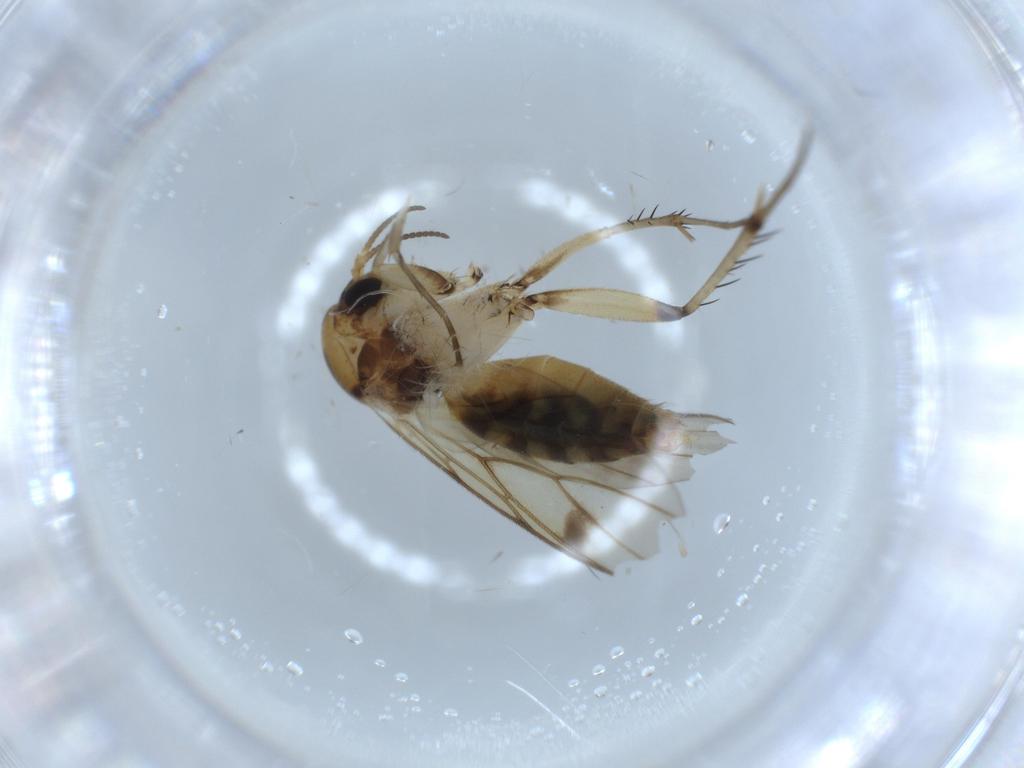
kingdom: Animalia
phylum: Arthropoda
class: Insecta
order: Diptera
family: Mycetophilidae
